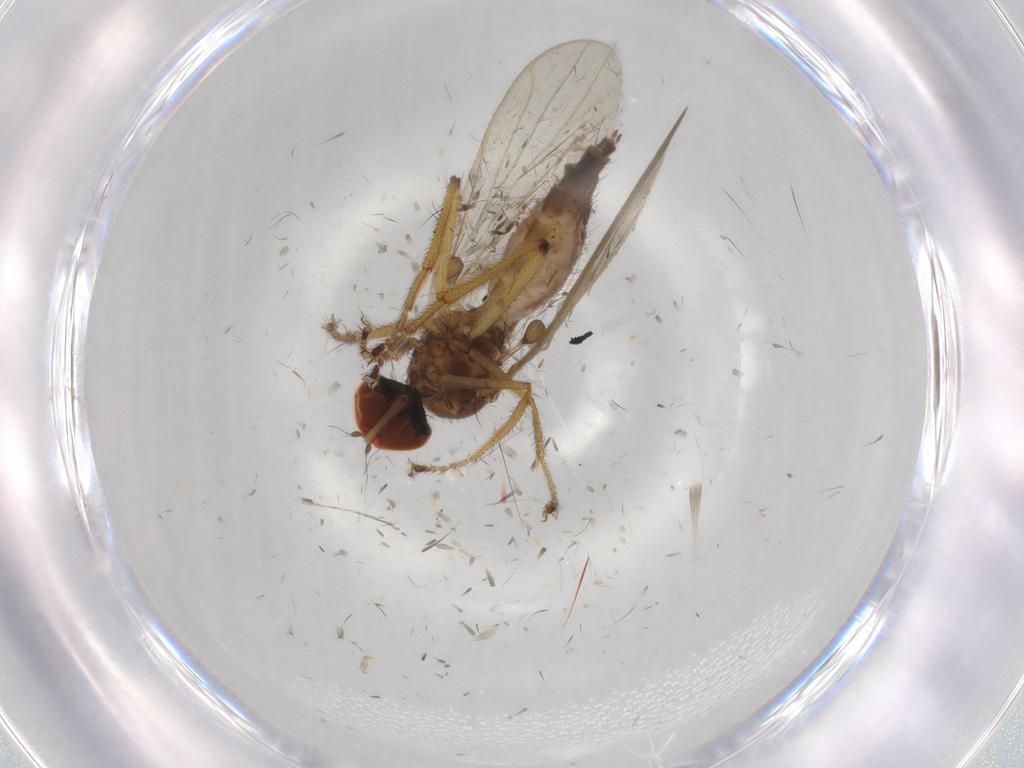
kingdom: Animalia
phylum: Arthropoda
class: Insecta
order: Diptera
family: Hybotidae
